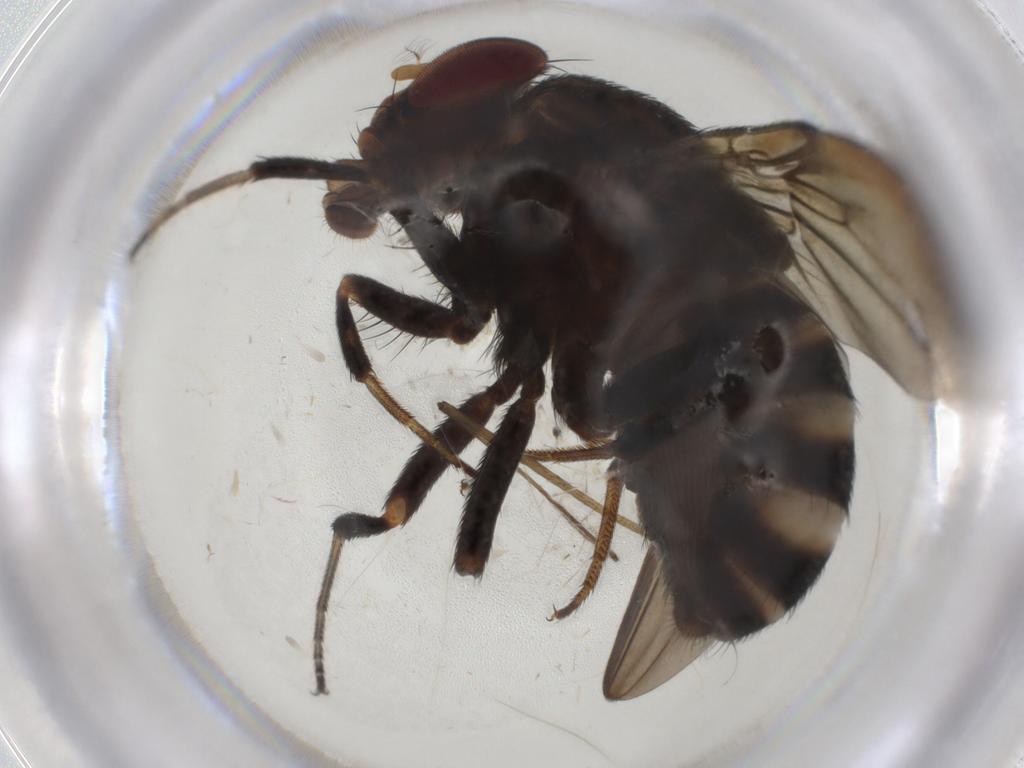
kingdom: Animalia
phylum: Arthropoda
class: Insecta
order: Diptera
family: Drosophilidae
